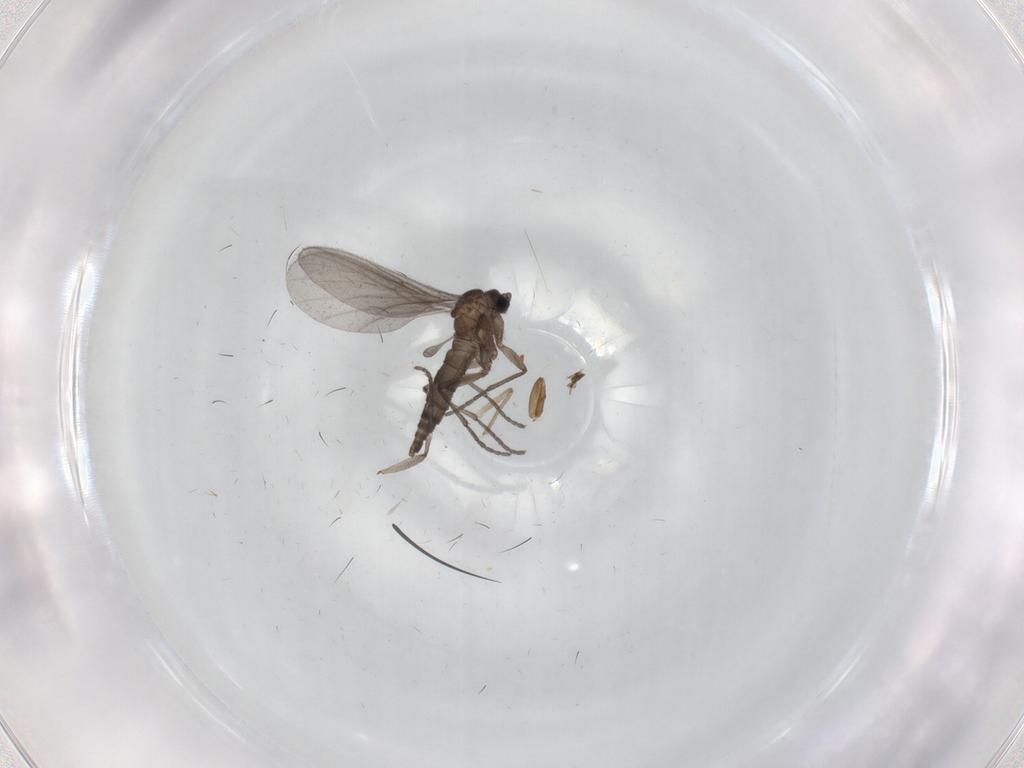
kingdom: Animalia
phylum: Arthropoda
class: Insecta
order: Diptera
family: Sciaridae
